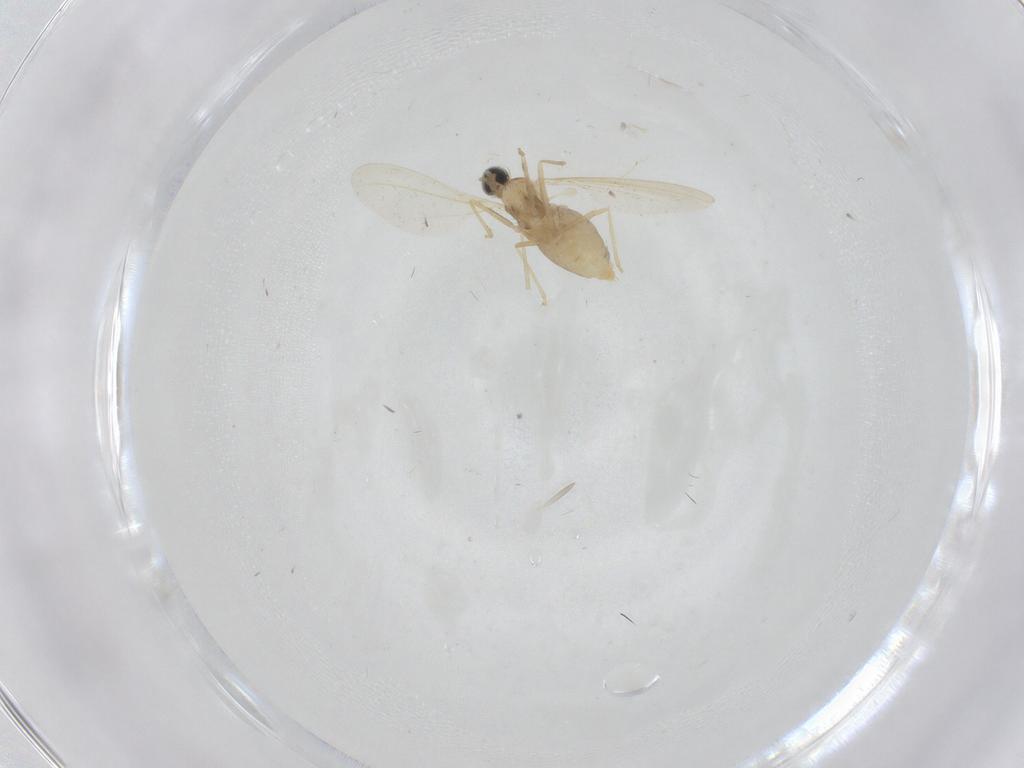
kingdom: Animalia
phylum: Arthropoda
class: Insecta
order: Diptera
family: Cecidomyiidae
